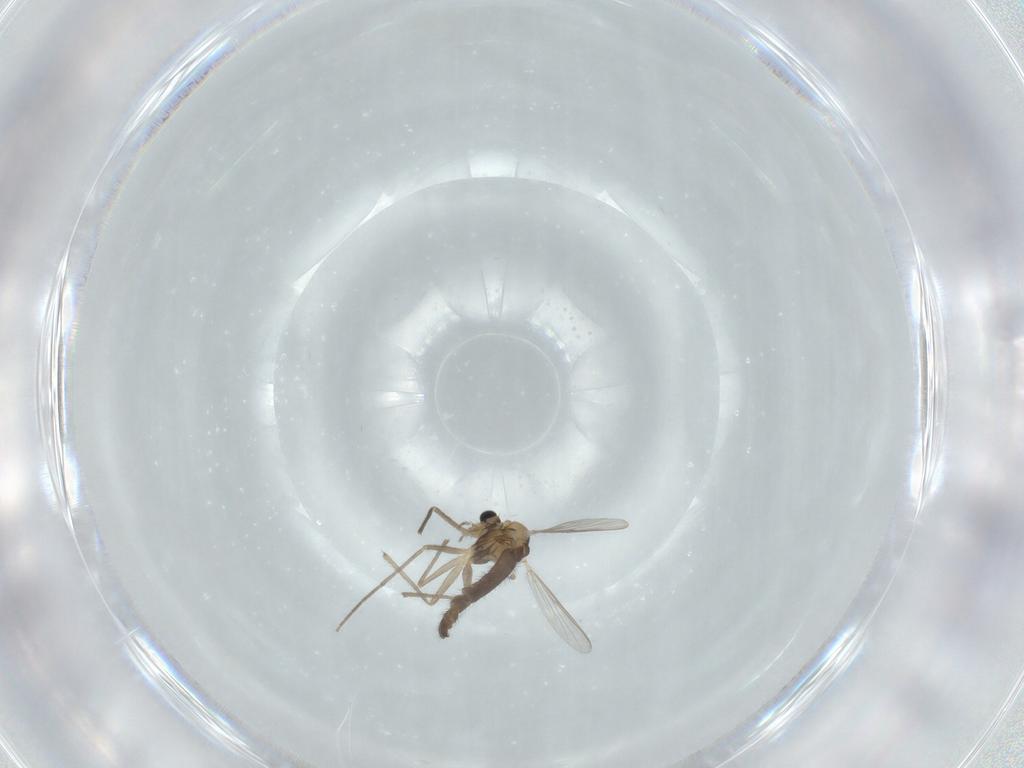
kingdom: Animalia
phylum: Arthropoda
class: Insecta
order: Diptera
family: Chironomidae
